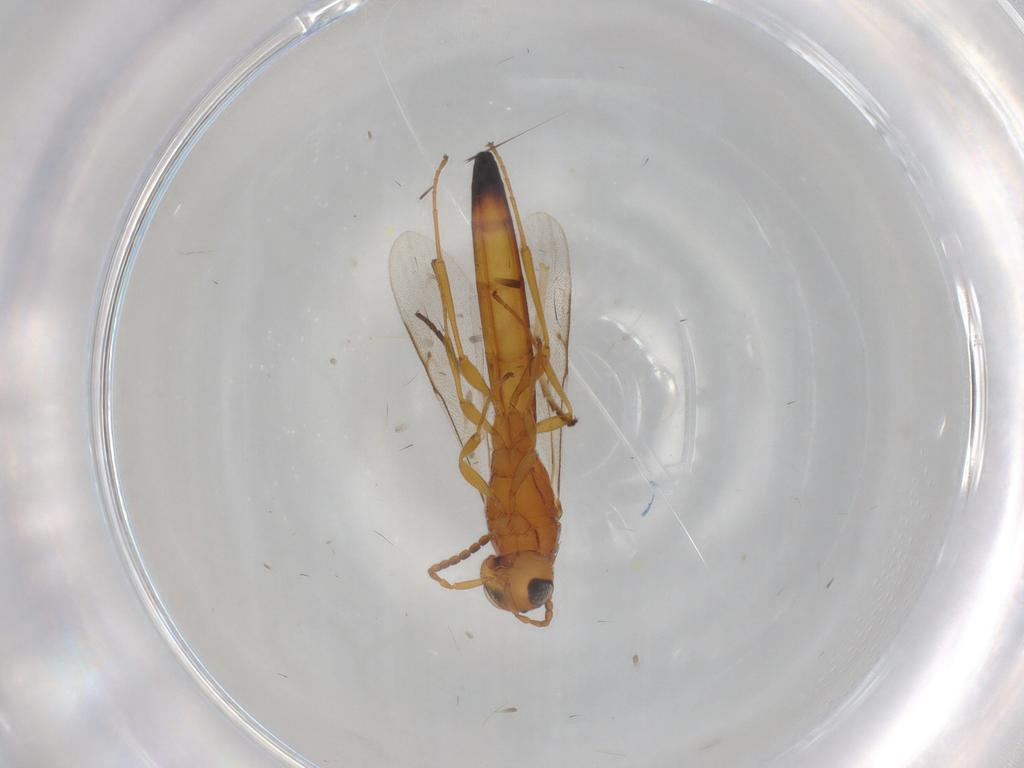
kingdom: Animalia
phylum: Arthropoda
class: Insecta
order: Hymenoptera
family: Scelionidae
